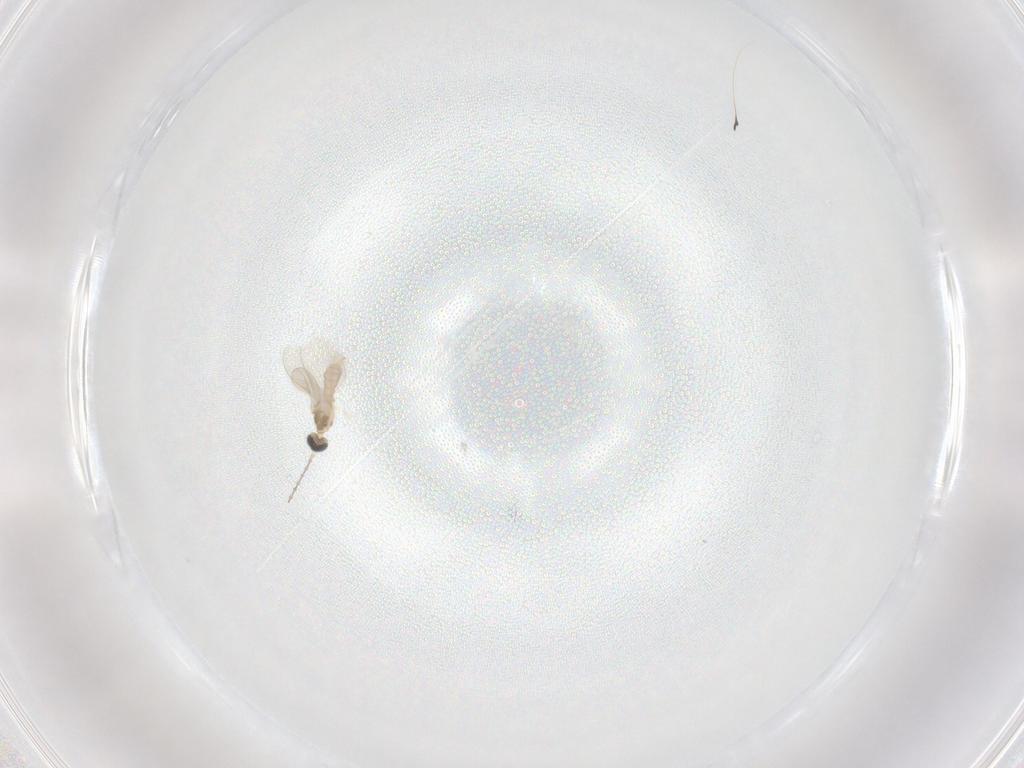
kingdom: Animalia
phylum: Arthropoda
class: Insecta
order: Diptera
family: Cecidomyiidae
